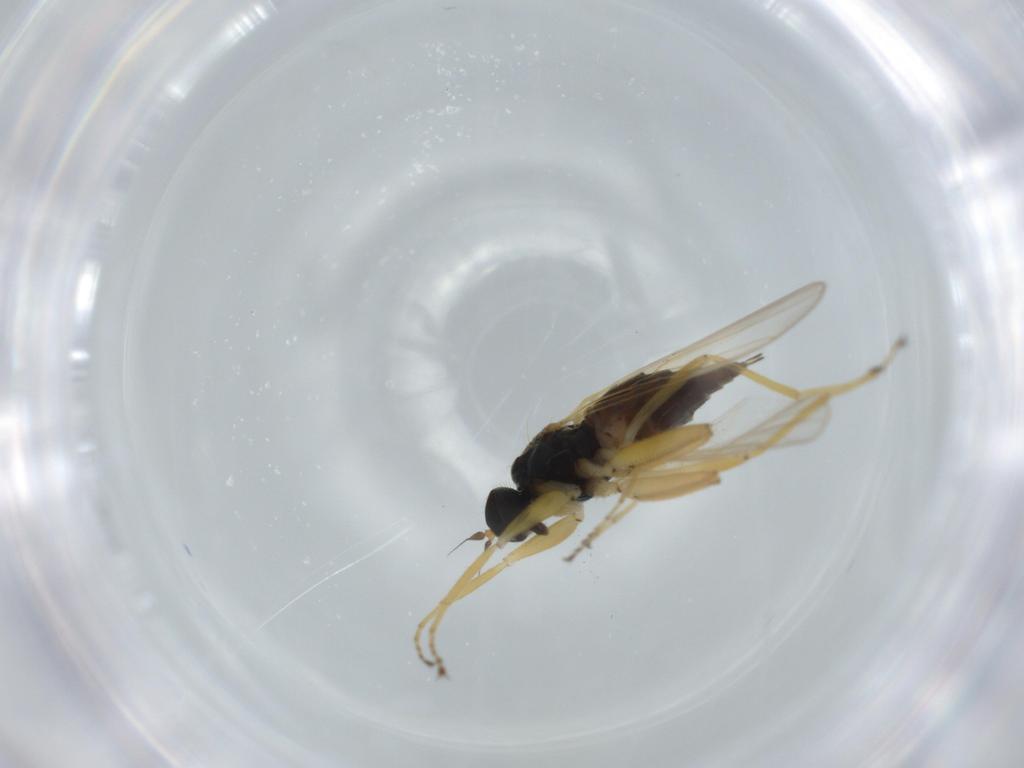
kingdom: Animalia
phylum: Arthropoda
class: Insecta
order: Diptera
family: Hybotidae
